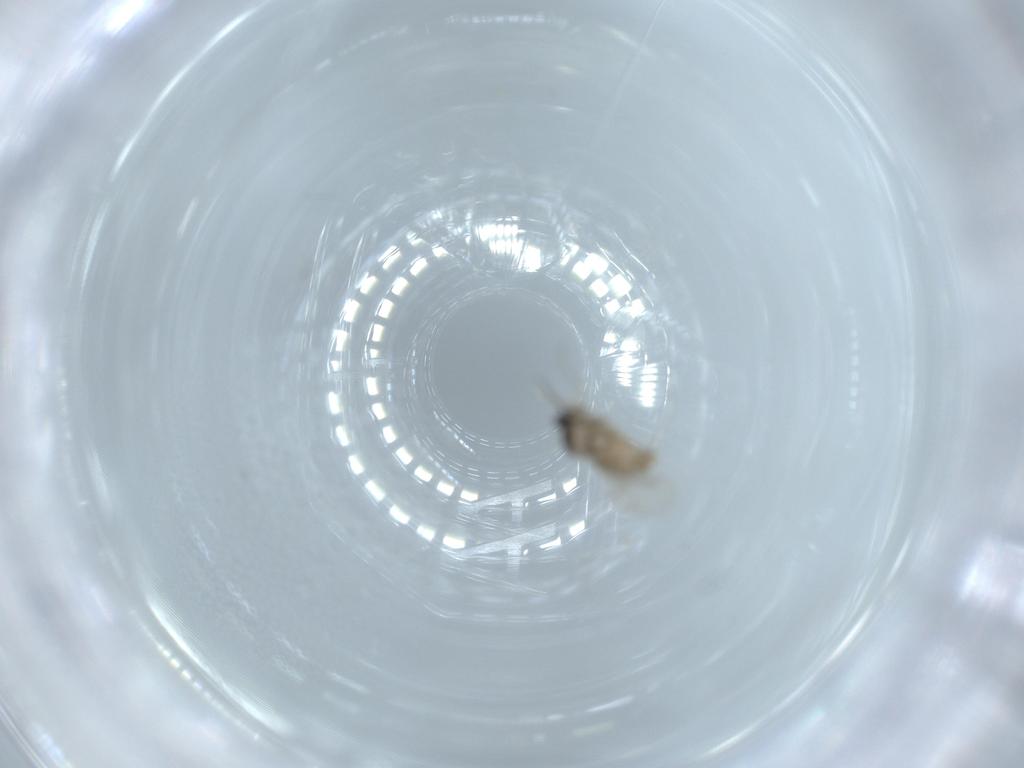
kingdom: Animalia
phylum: Arthropoda
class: Insecta
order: Diptera
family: Cecidomyiidae
